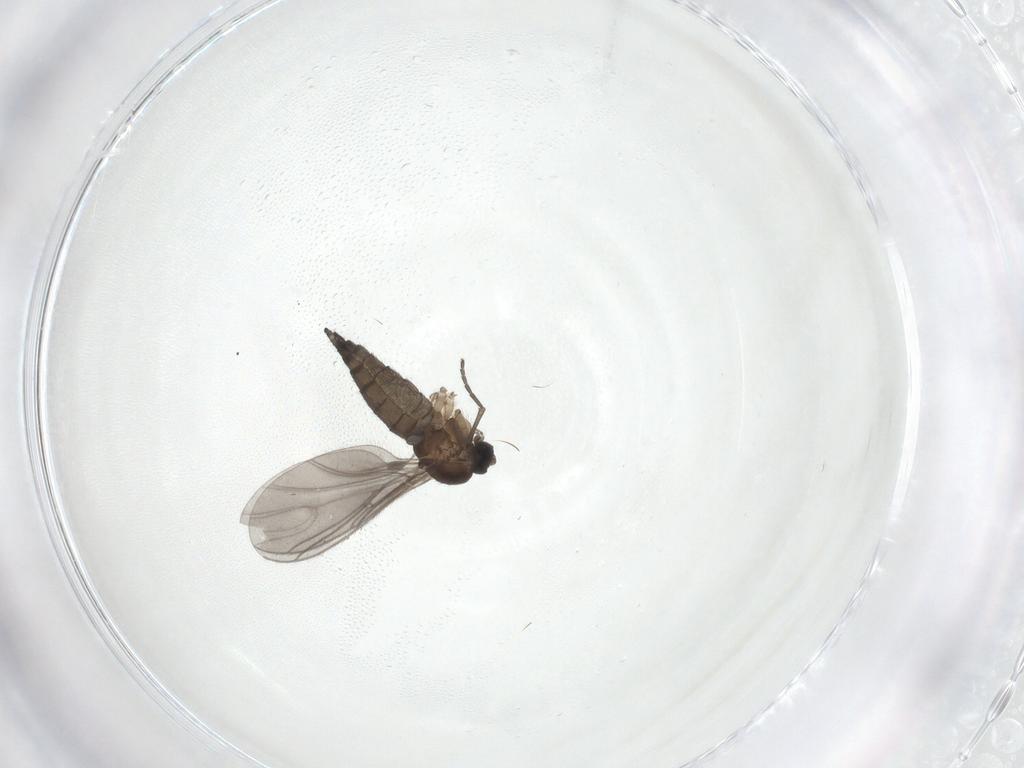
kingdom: Animalia
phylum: Arthropoda
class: Insecta
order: Diptera
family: Sciaridae
